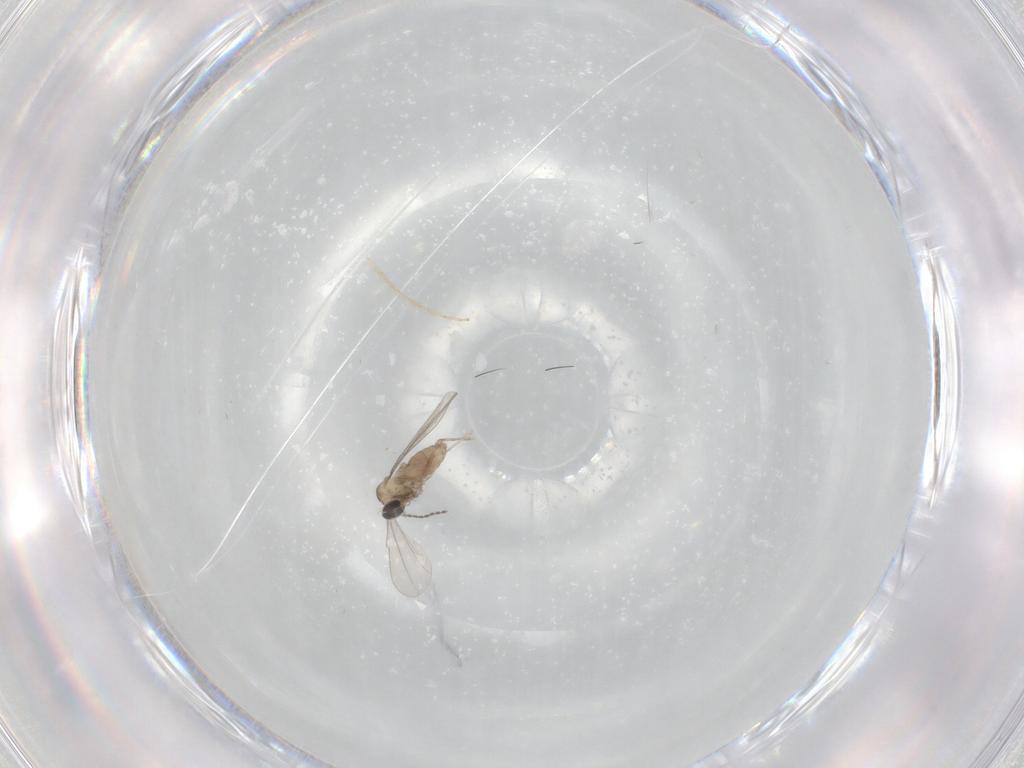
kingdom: Animalia
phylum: Arthropoda
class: Insecta
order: Diptera
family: Chironomidae
